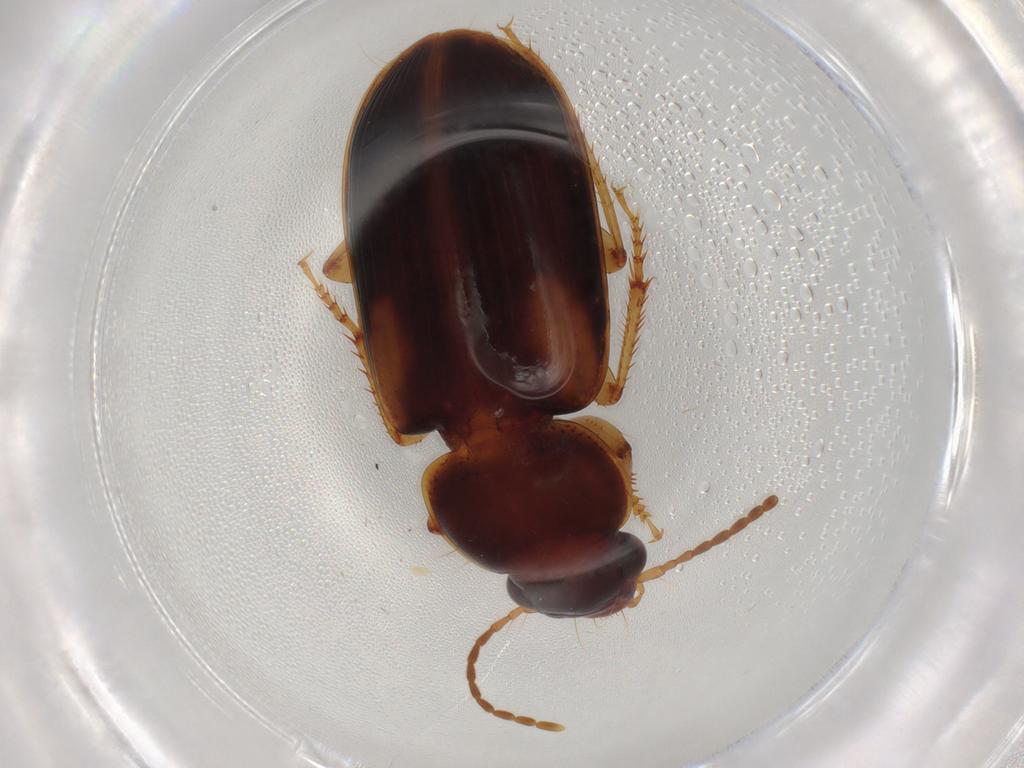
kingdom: Animalia
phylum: Arthropoda
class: Insecta
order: Coleoptera
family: Carabidae
